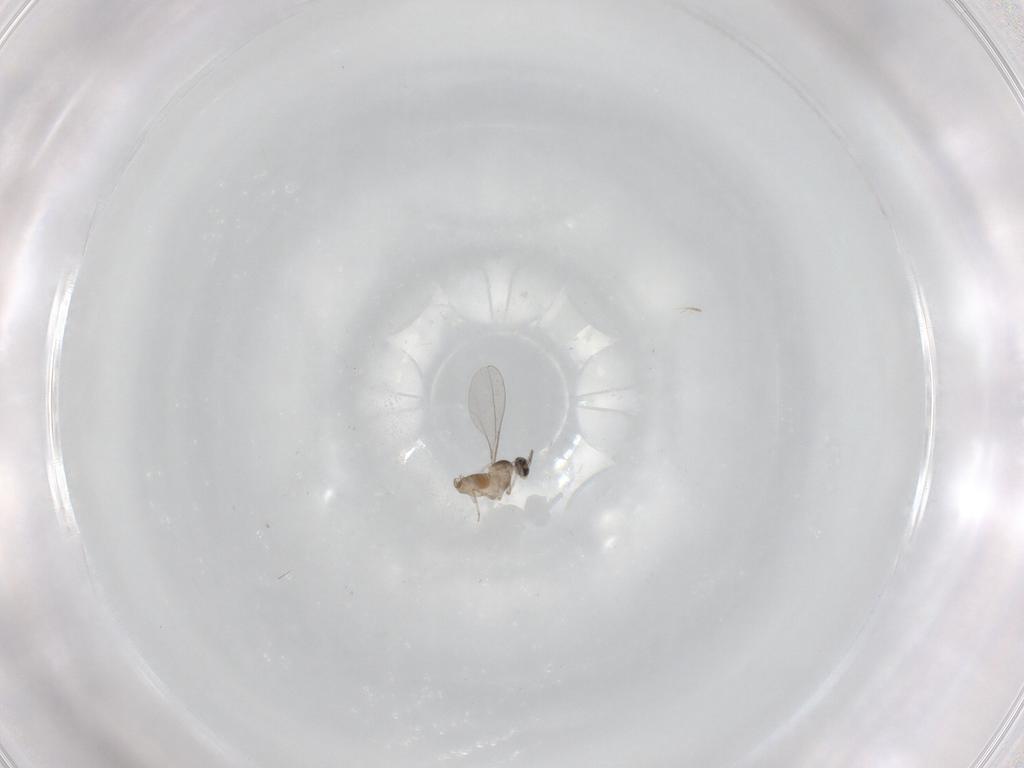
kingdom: Animalia
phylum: Arthropoda
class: Insecta
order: Diptera
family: Cecidomyiidae
